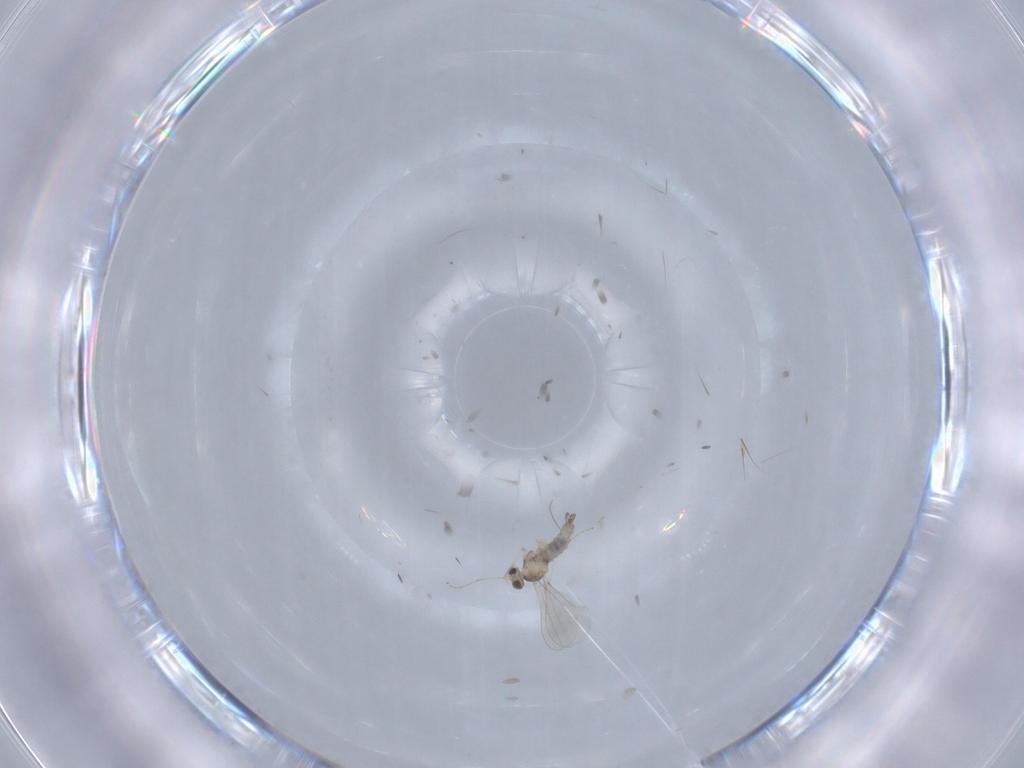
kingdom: Animalia
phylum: Arthropoda
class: Insecta
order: Diptera
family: Cecidomyiidae
